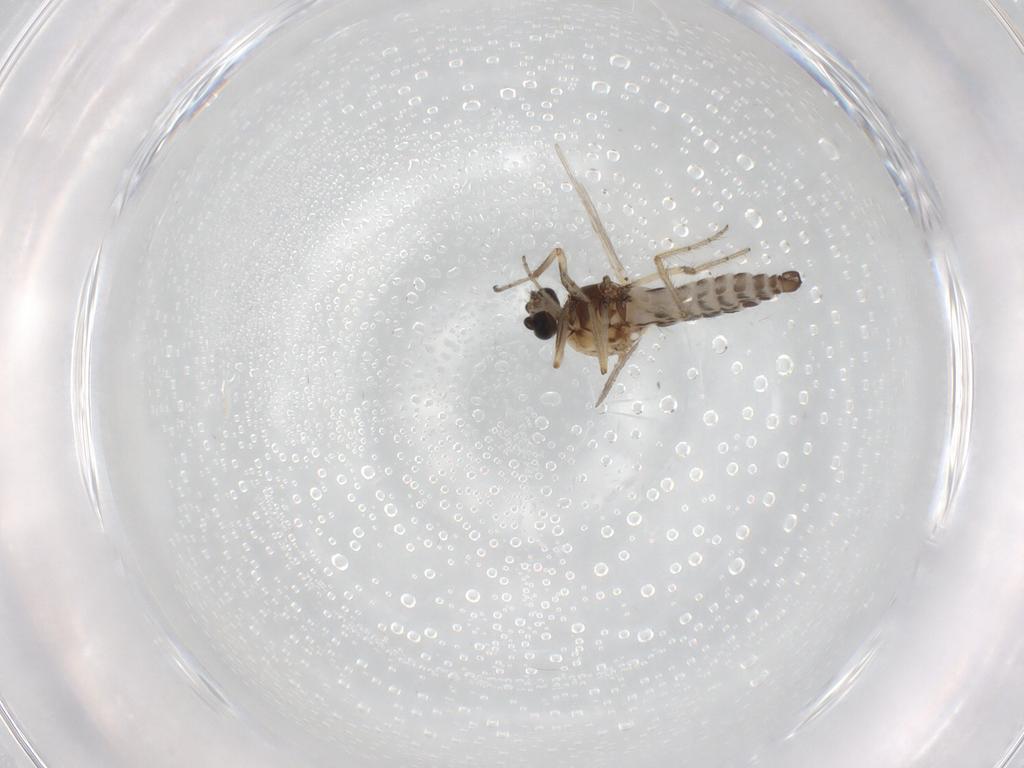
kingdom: Animalia
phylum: Arthropoda
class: Insecta
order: Diptera
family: Ceratopogonidae
